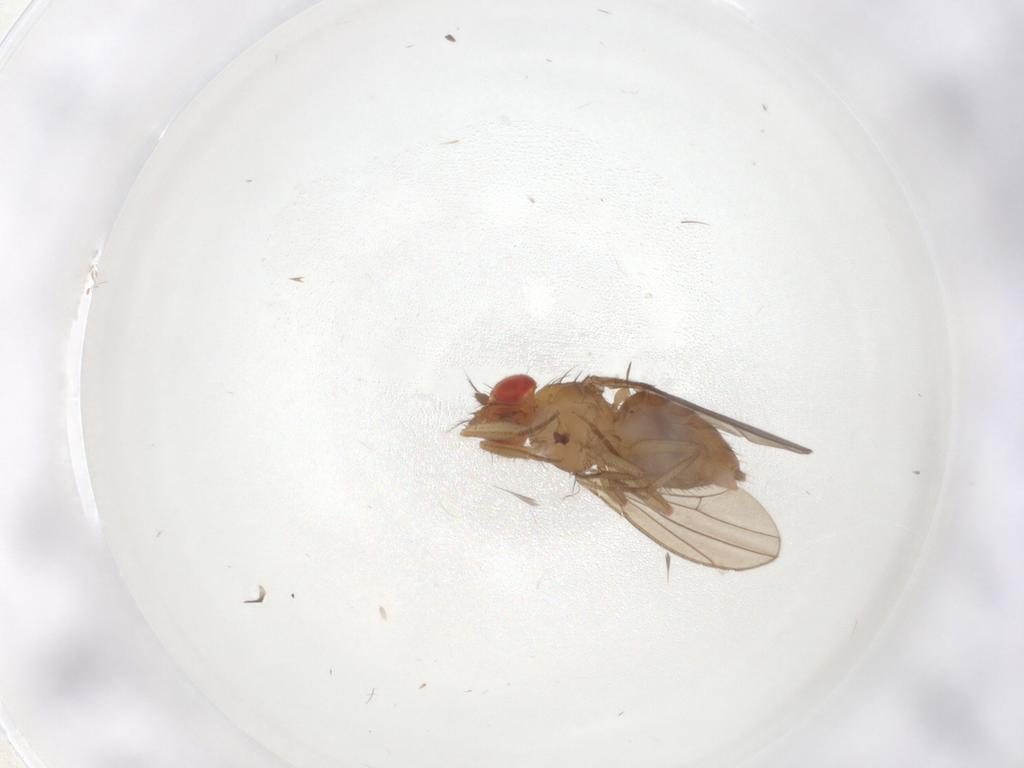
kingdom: Animalia
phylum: Arthropoda
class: Insecta
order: Diptera
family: Drosophilidae
